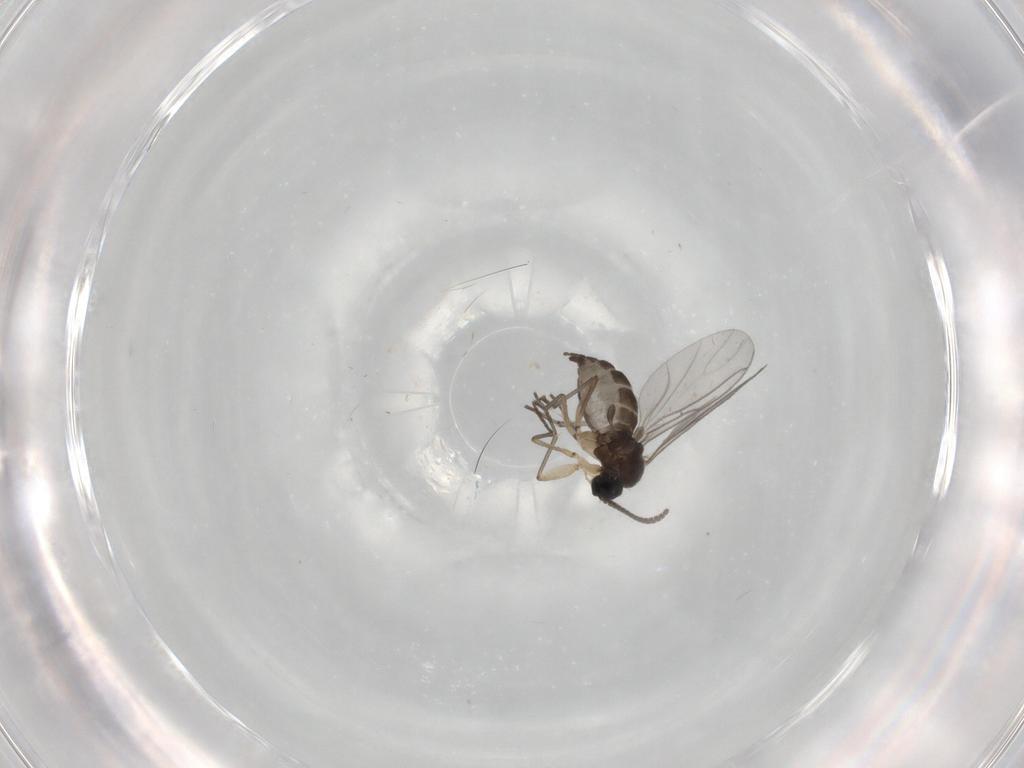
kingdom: Animalia
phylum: Arthropoda
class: Insecta
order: Diptera
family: Sciaridae
